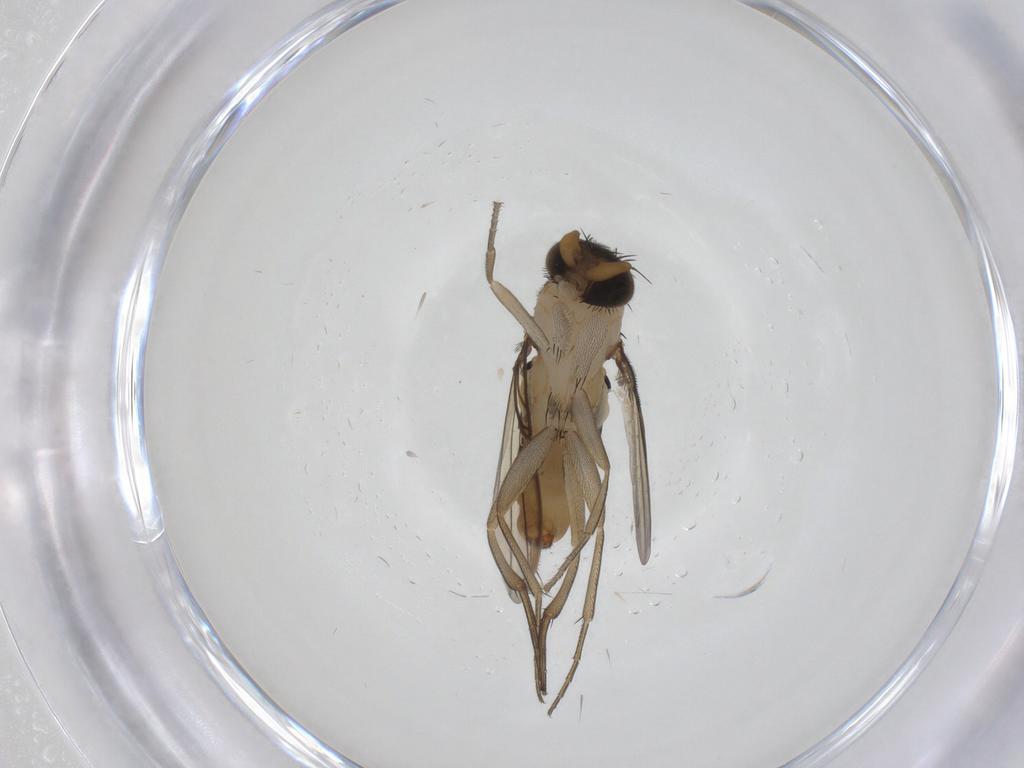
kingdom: Animalia
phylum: Arthropoda
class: Insecta
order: Diptera
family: Phoridae
